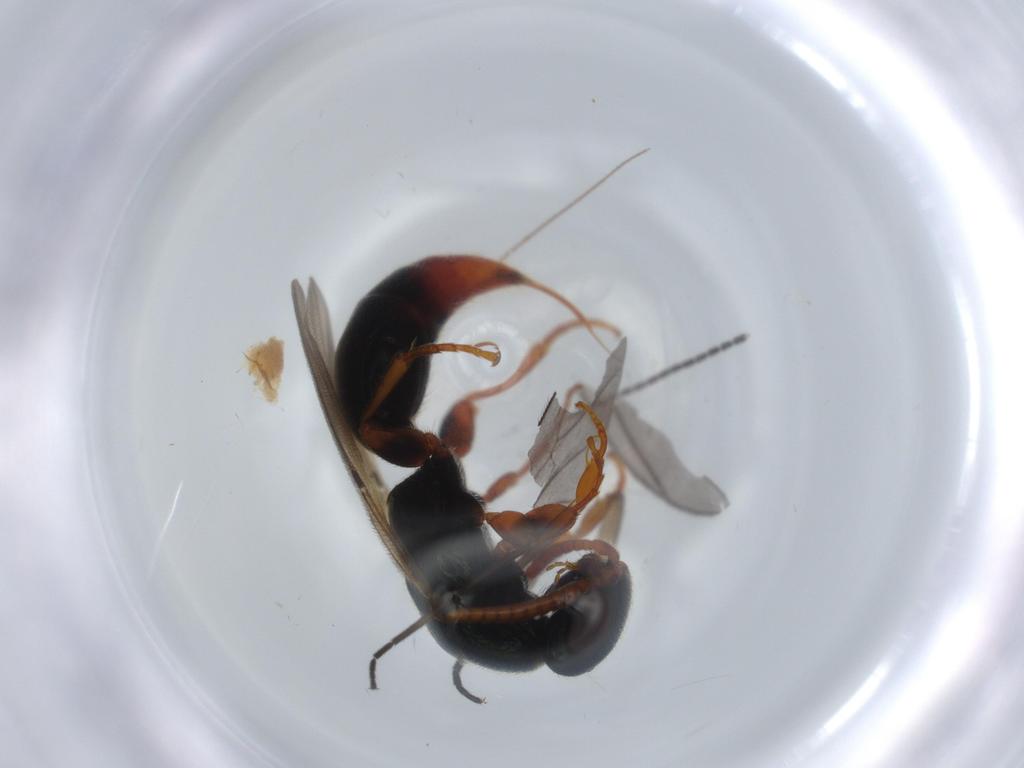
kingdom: Animalia
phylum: Arthropoda
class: Insecta
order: Hymenoptera
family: Bethylidae
